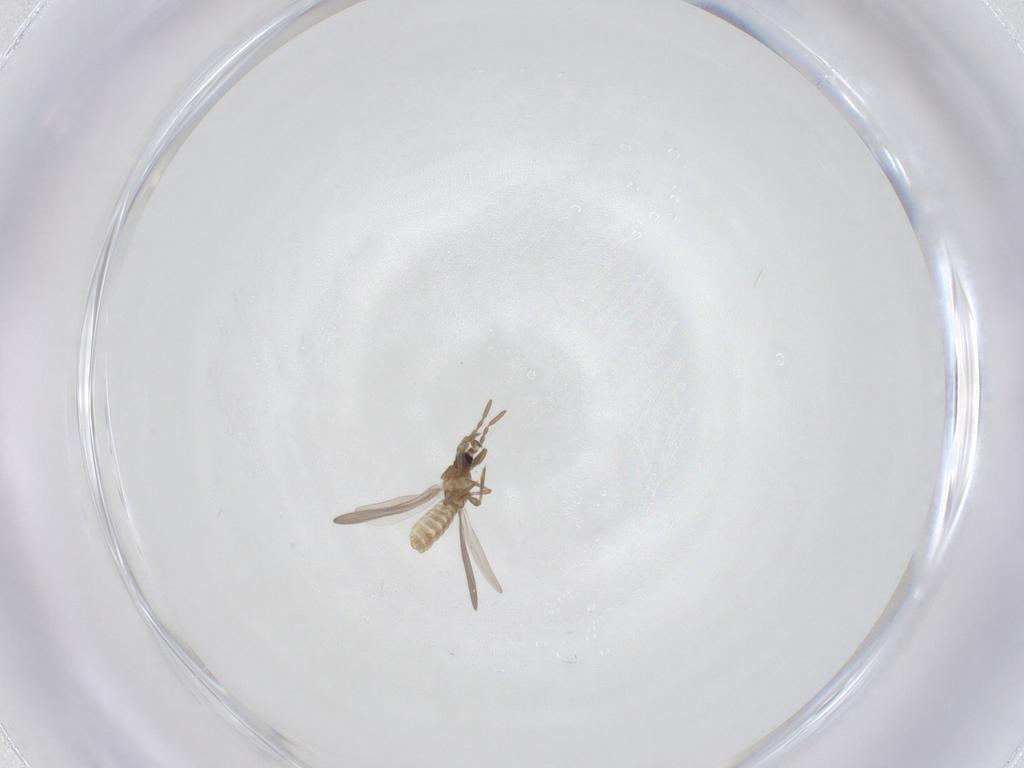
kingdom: Animalia
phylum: Arthropoda
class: Insecta
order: Hemiptera
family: Enicocephalidae
